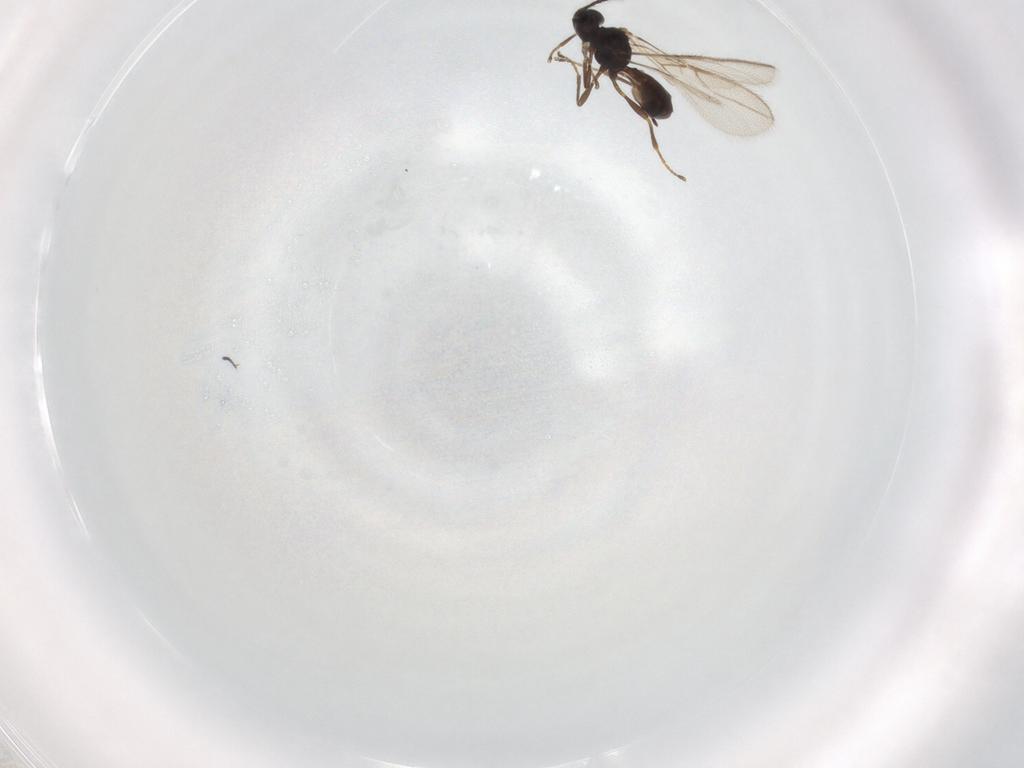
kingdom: Animalia
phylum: Arthropoda
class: Insecta
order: Hymenoptera
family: Braconidae
